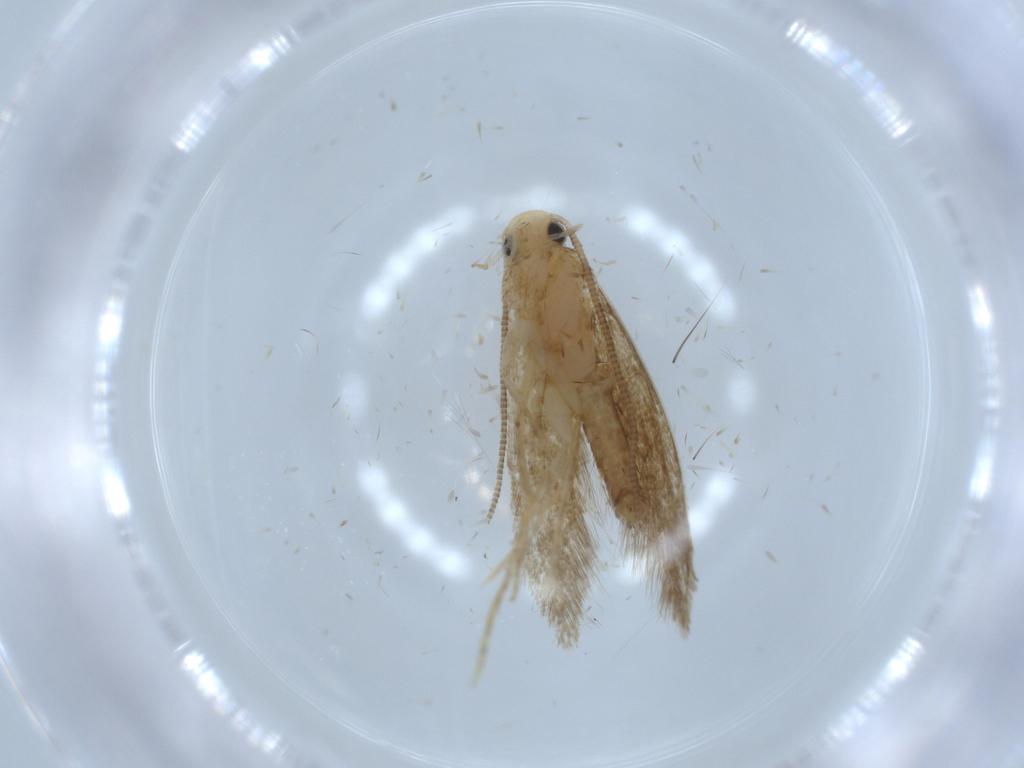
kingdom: Animalia
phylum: Arthropoda
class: Insecta
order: Lepidoptera
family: Tineidae
